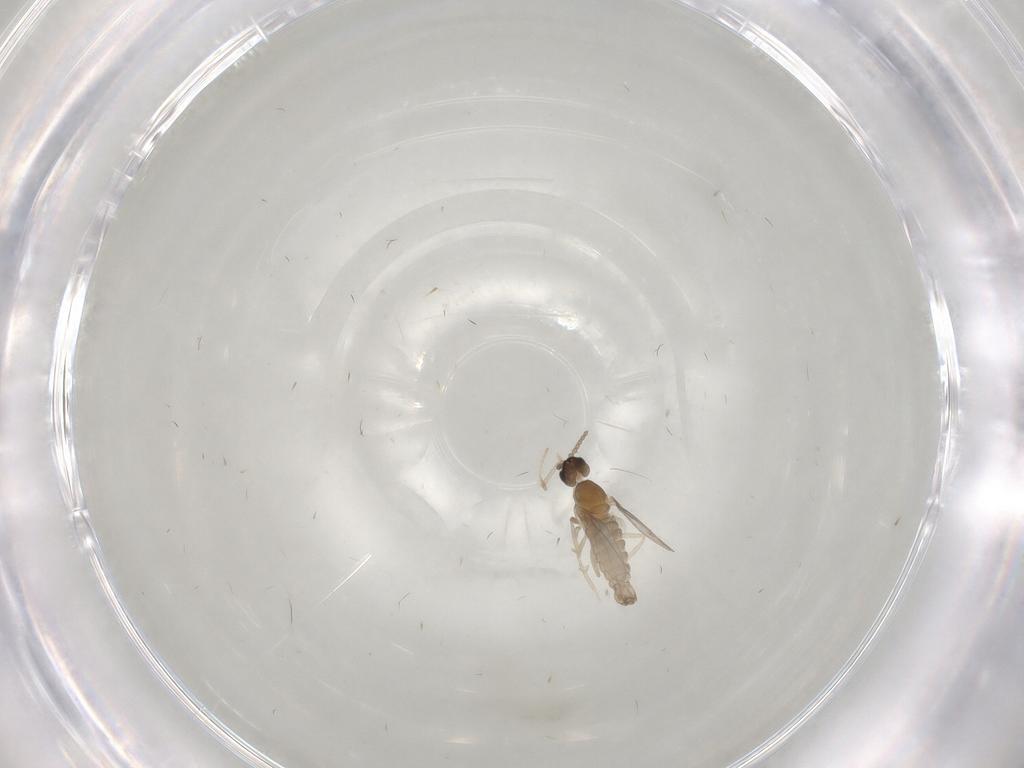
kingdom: Animalia
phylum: Arthropoda
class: Insecta
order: Diptera
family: Cecidomyiidae
